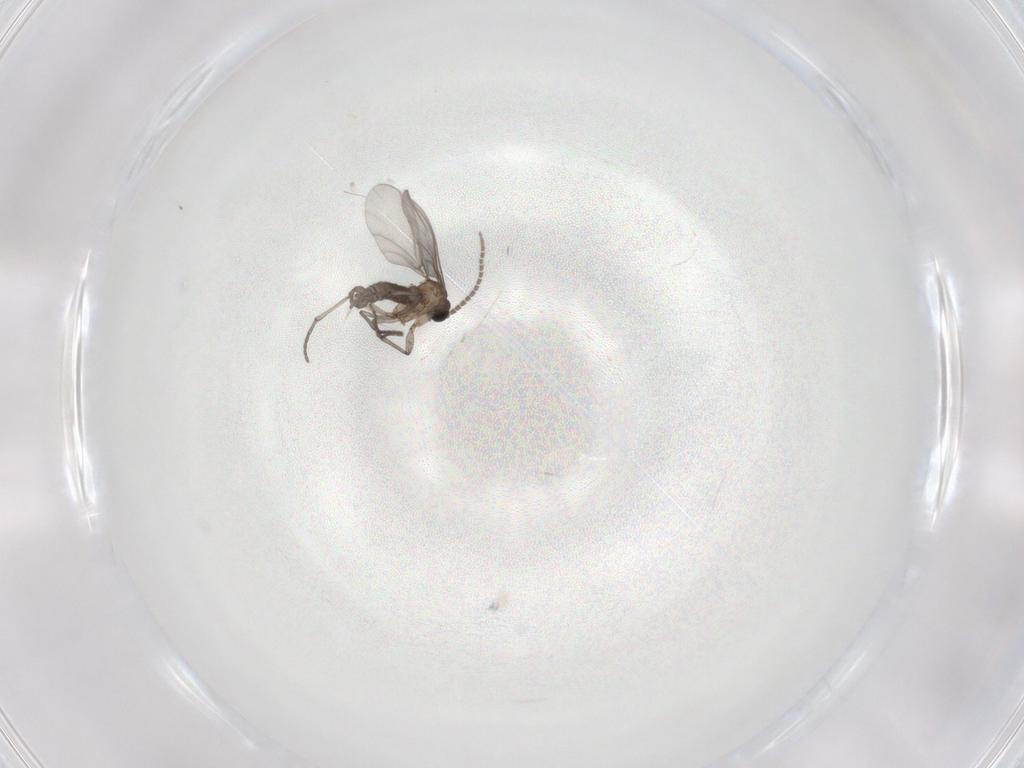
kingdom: Animalia
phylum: Arthropoda
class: Insecta
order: Diptera
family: Sciaridae
